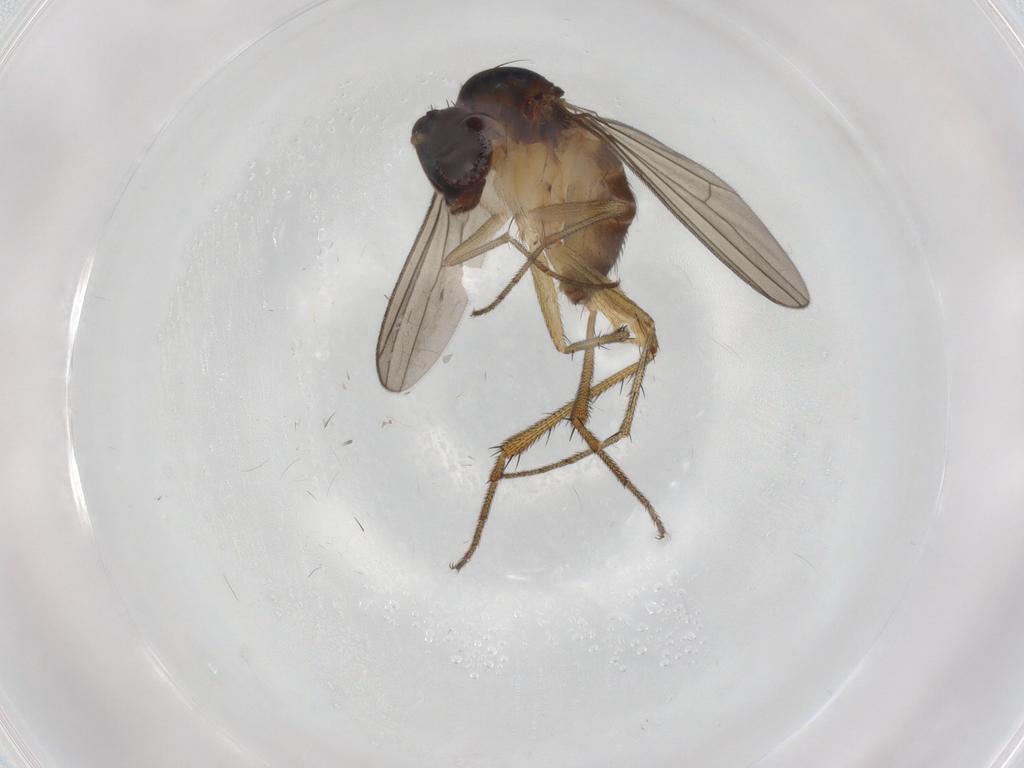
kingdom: Animalia
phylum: Arthropoda
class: Insecta
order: Diptera
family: Dolichopodidae
